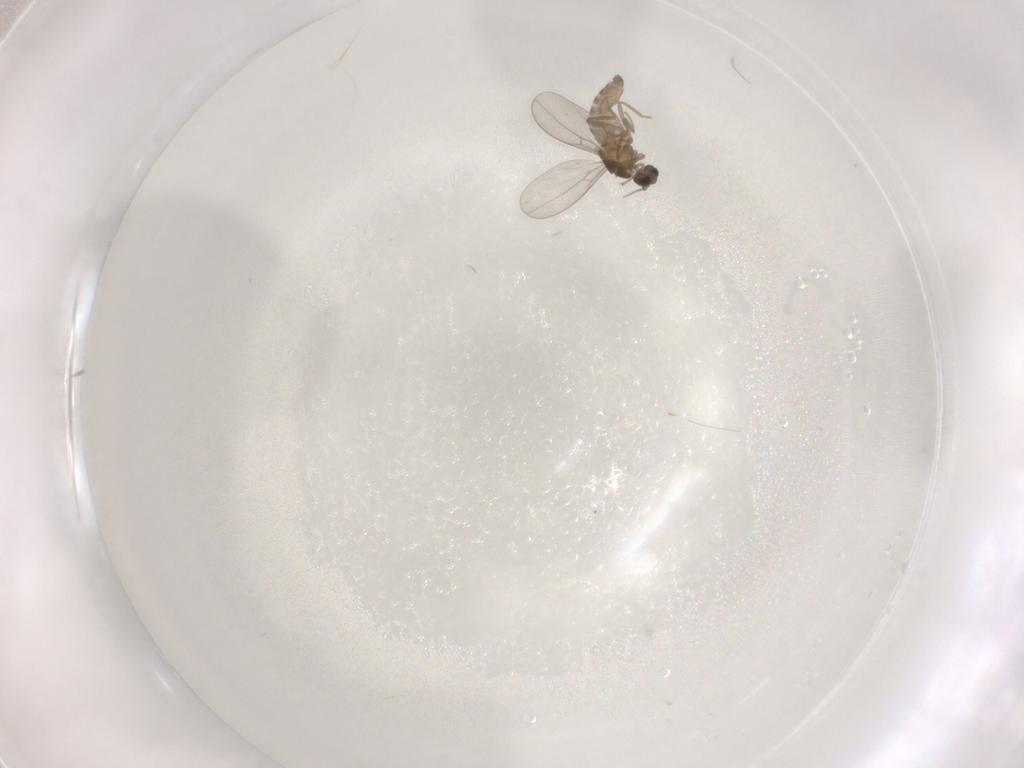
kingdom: Animalia
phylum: Arthropoda
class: Insecta
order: Diptera
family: Cecidomyiidae
